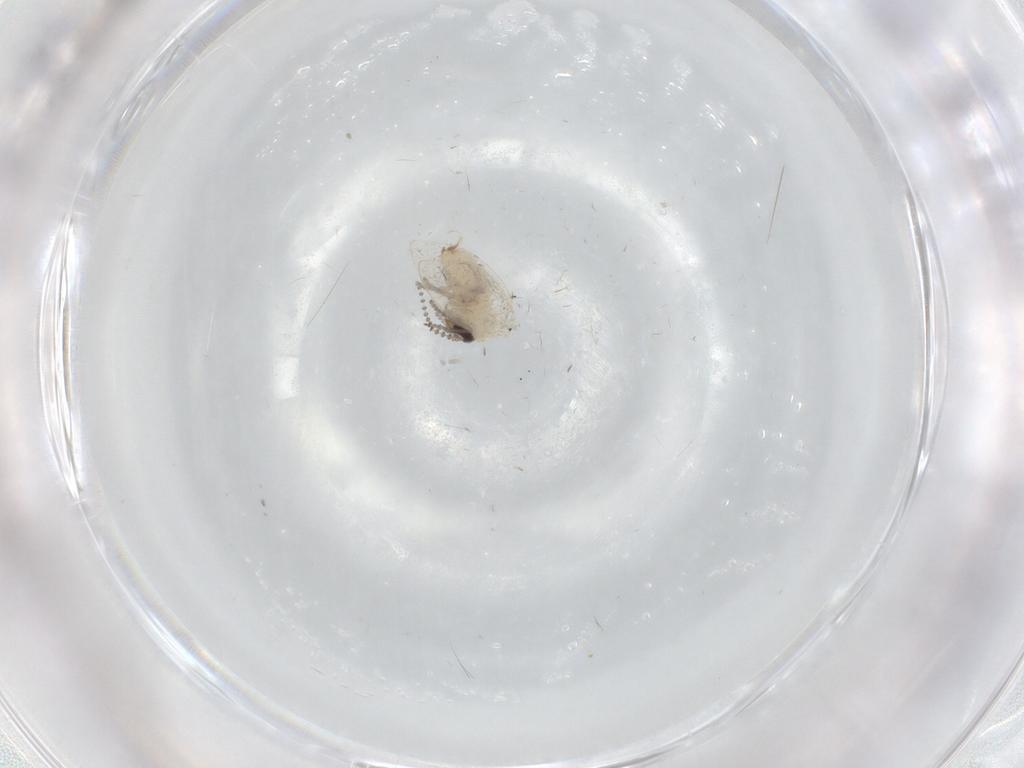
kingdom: Animalia
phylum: Arthropoda
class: Insecta
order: Diptera
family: Psychodidae
